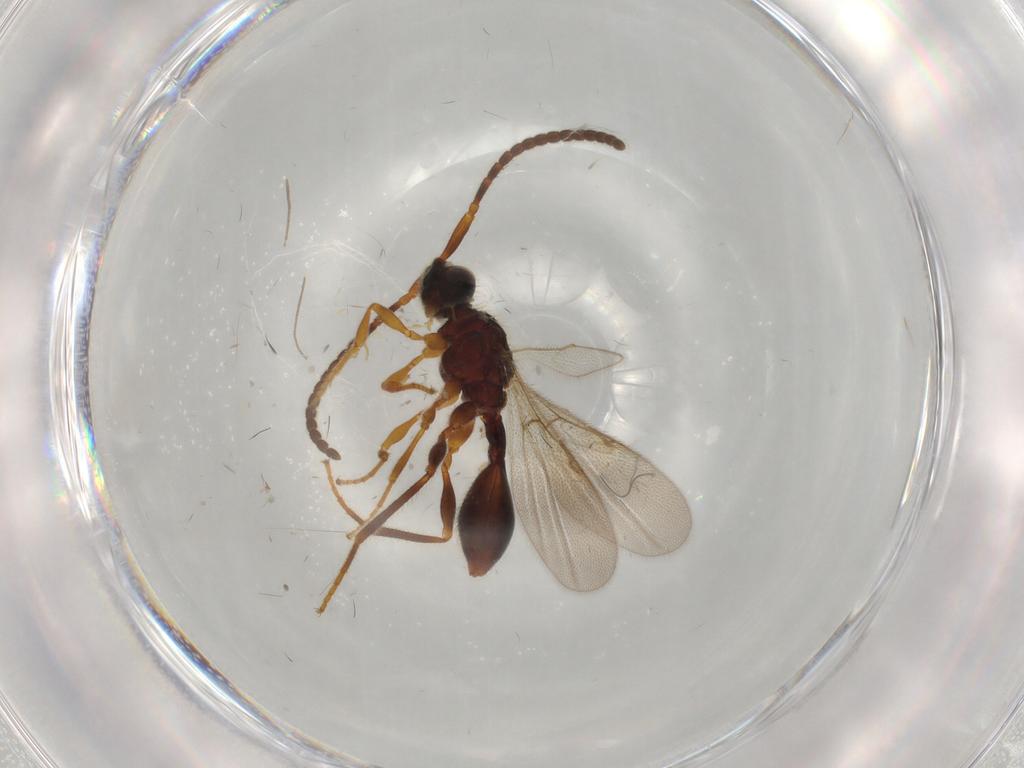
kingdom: Animalia
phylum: Arthropoda
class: Insecta
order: Hymenoptera
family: Formicidae
